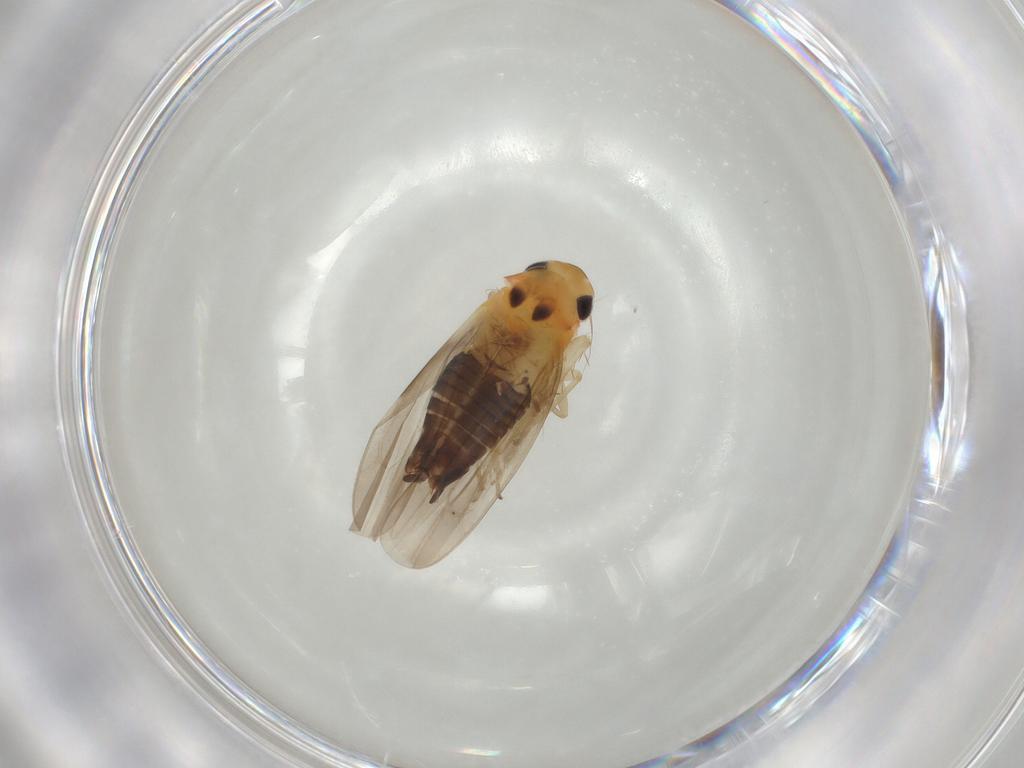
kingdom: Animalia
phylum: Arthropoda
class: Insecta
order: Hemiptera
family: Cicadellidae
